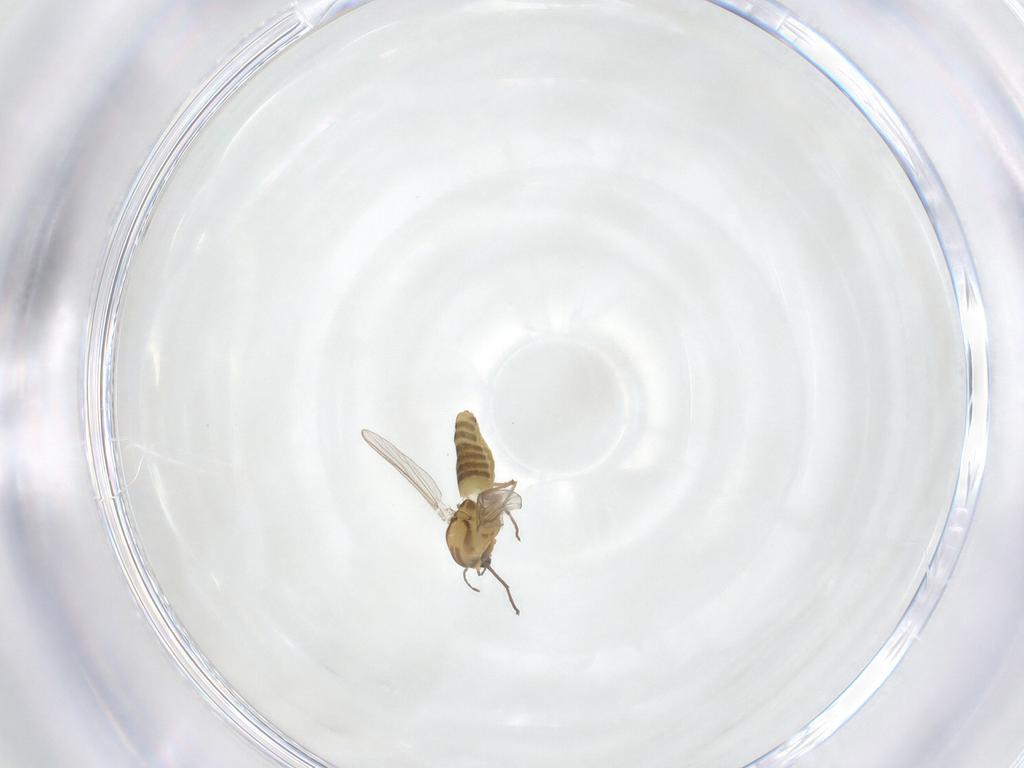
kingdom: Animalia
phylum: Arthropoda
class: Insecta
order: Diptera
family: Chironomidae
